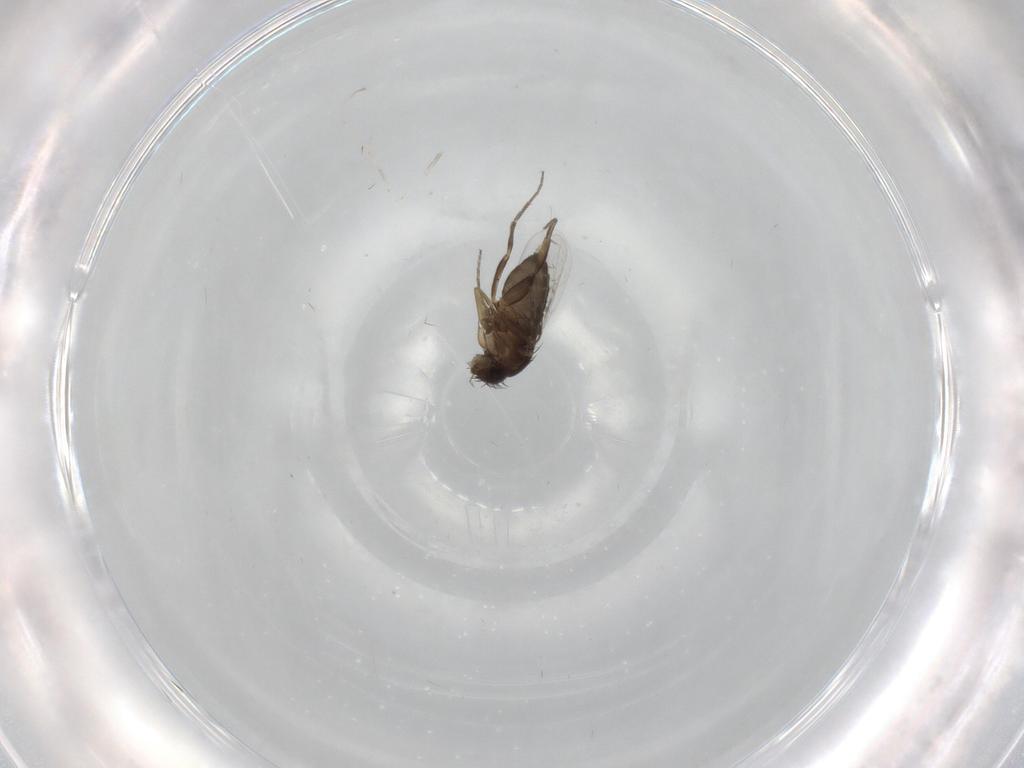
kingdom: Animalia
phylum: Arthropoda
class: Insecta
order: Diptera
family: Phoridae
